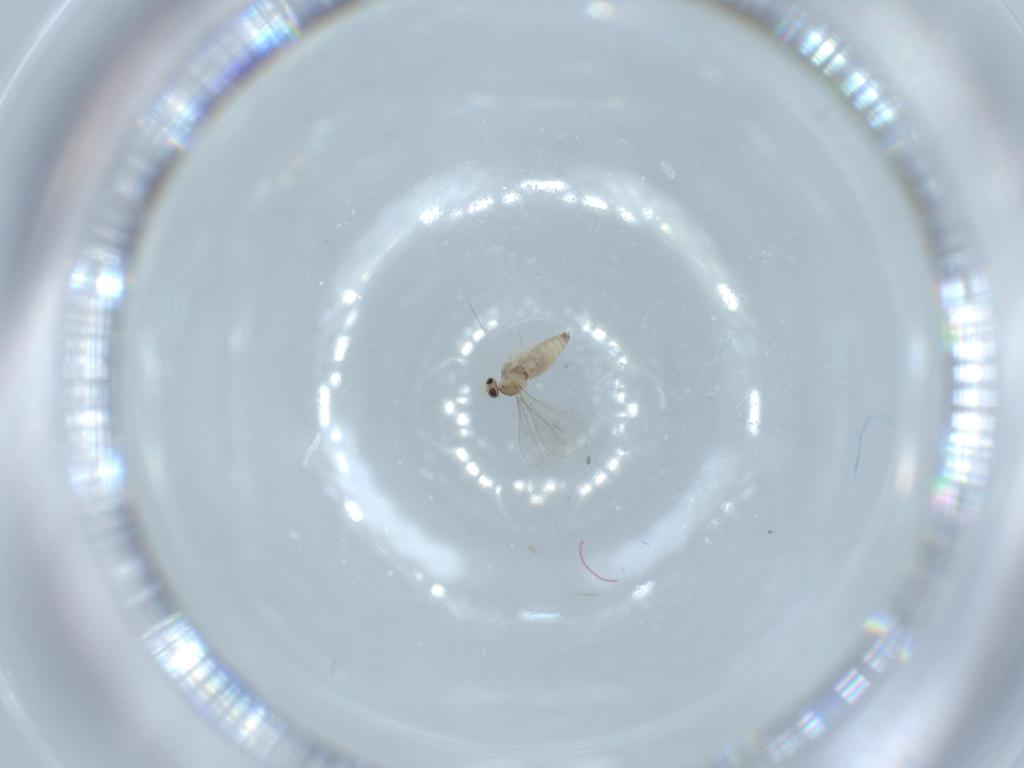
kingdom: Animalia
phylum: Arthropoda
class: Insecta
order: Diptera
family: Cecidomyiidae
